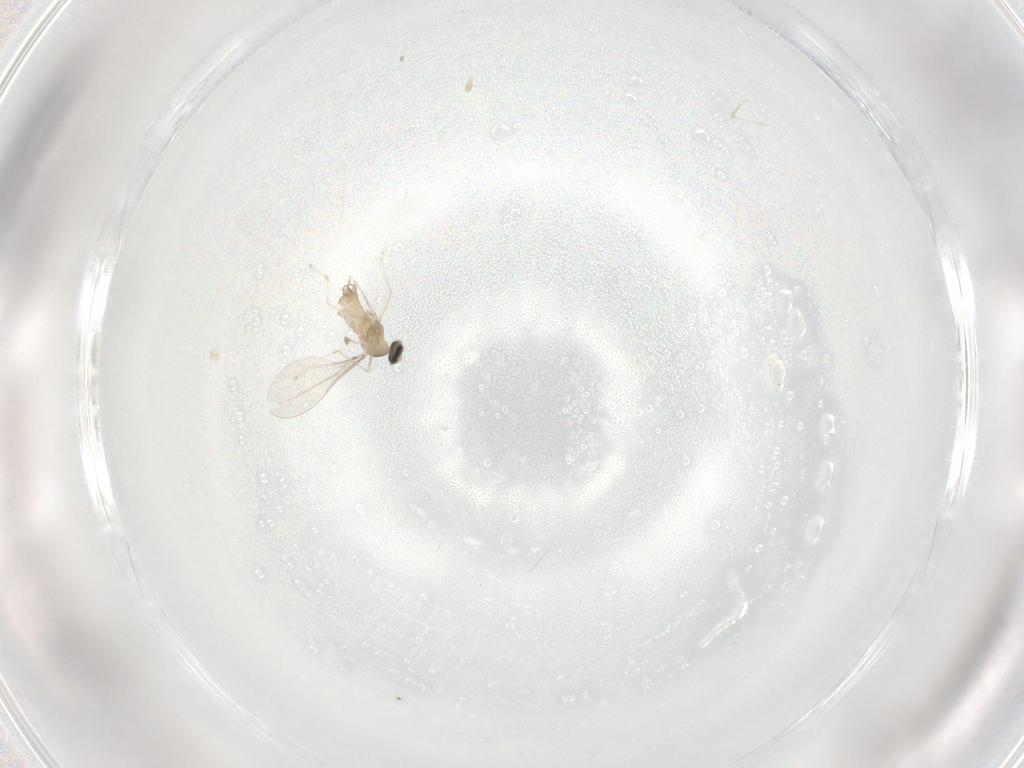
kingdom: Animalia
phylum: Arthropoda
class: Insecta
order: Diptera
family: Cecidomyiidae
